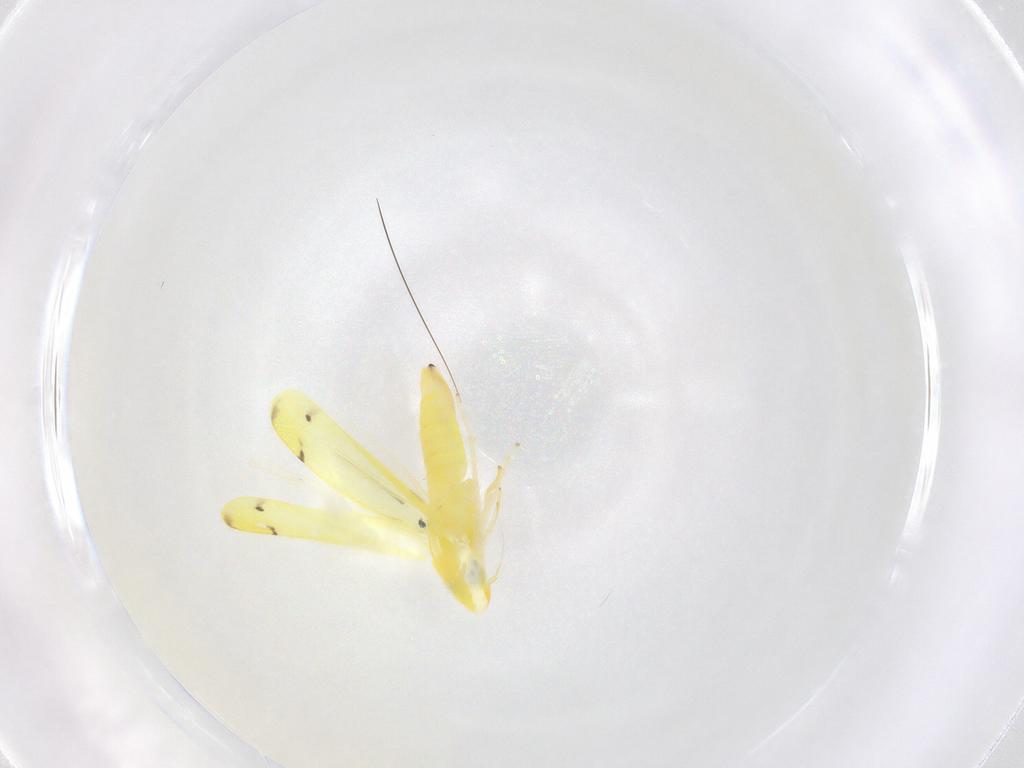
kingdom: Animalia
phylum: Arthropoda
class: Insecta
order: Hemiptera
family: Cicadellidae
